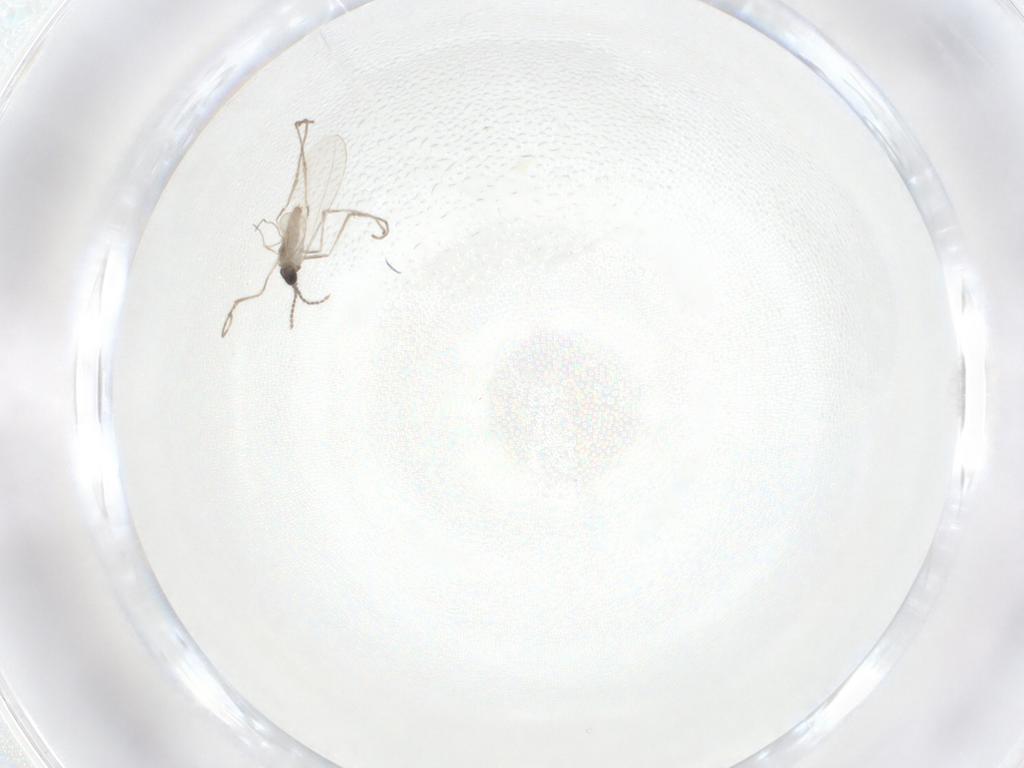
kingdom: Animalia
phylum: Arthropoda
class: Insecta
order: Diptera
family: Cecidomyiidae
